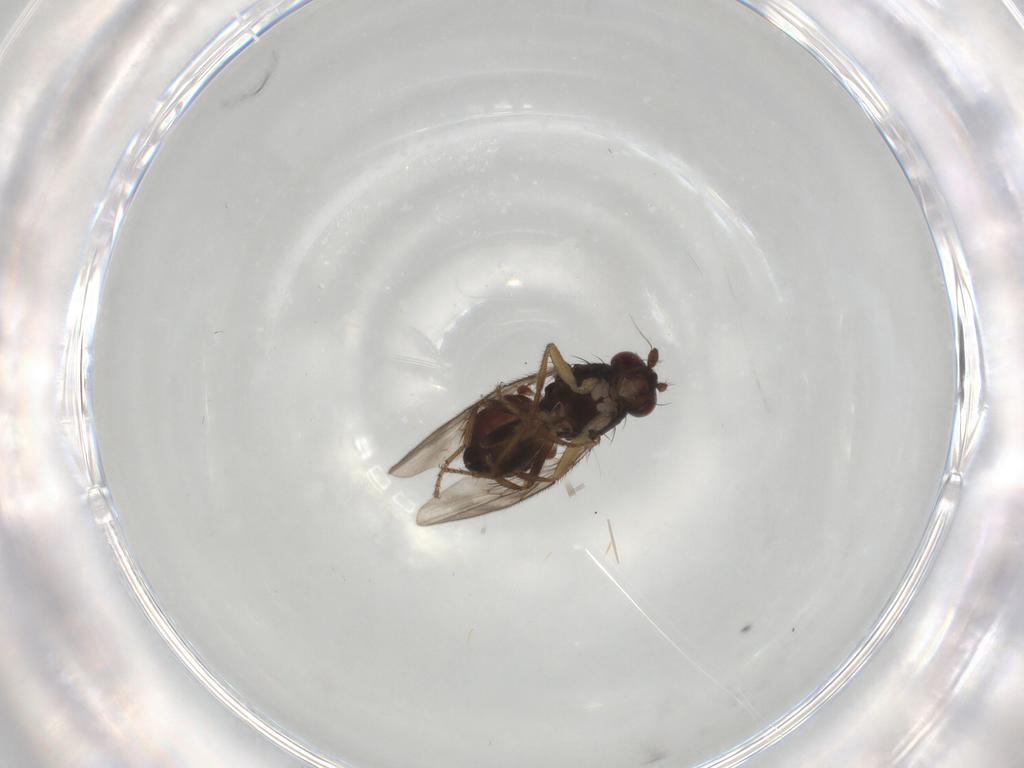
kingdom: Animalia
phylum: Arthropoda
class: Insecta
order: Diptera
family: Sphaeroceridae
